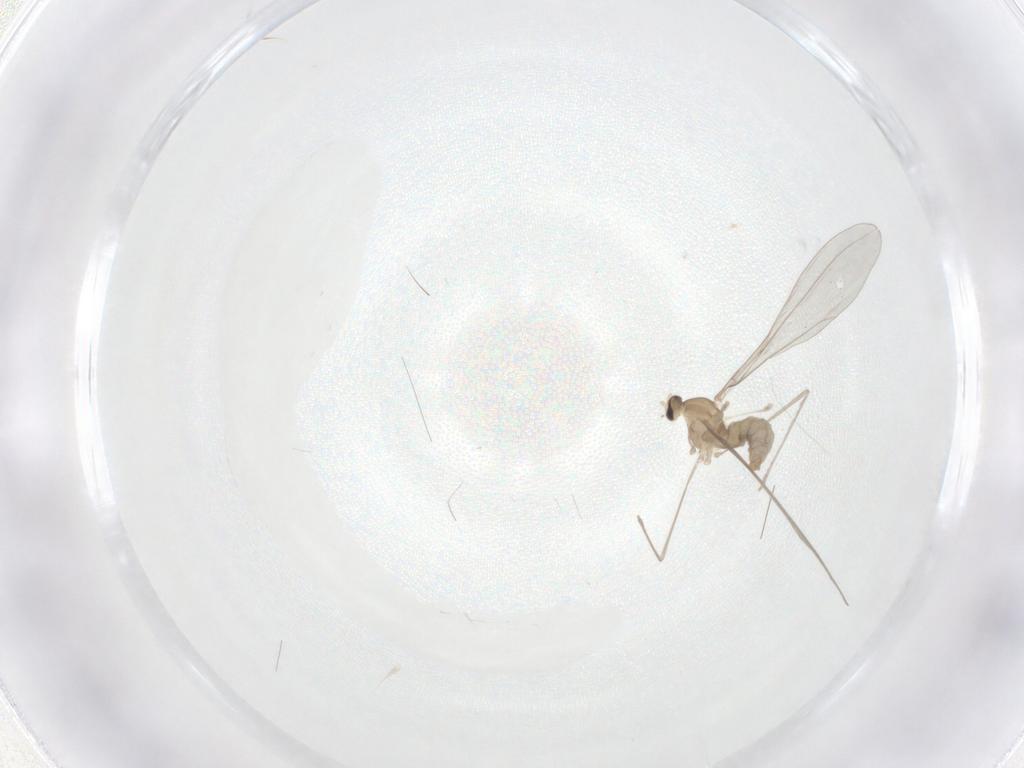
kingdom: Animalia
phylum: Arthropoda
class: Insecta
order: Diptera
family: Cecidomyiidae
